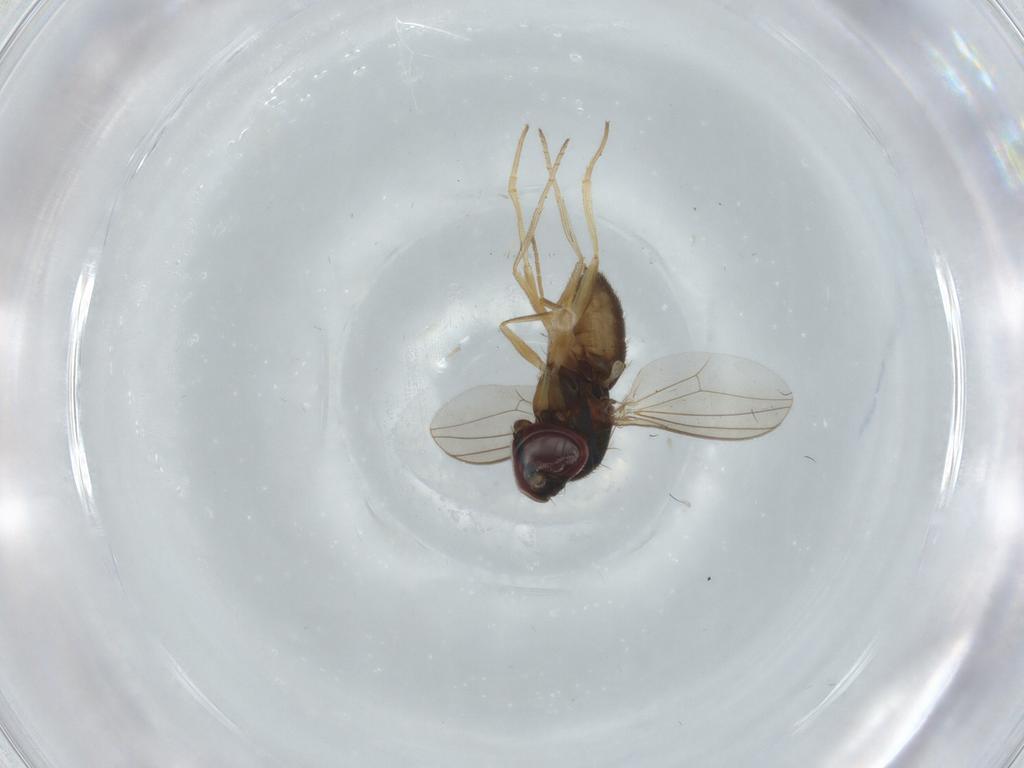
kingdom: Animalia
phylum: Arthropoda
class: Insecta
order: Diptera
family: Dolichopodidae
